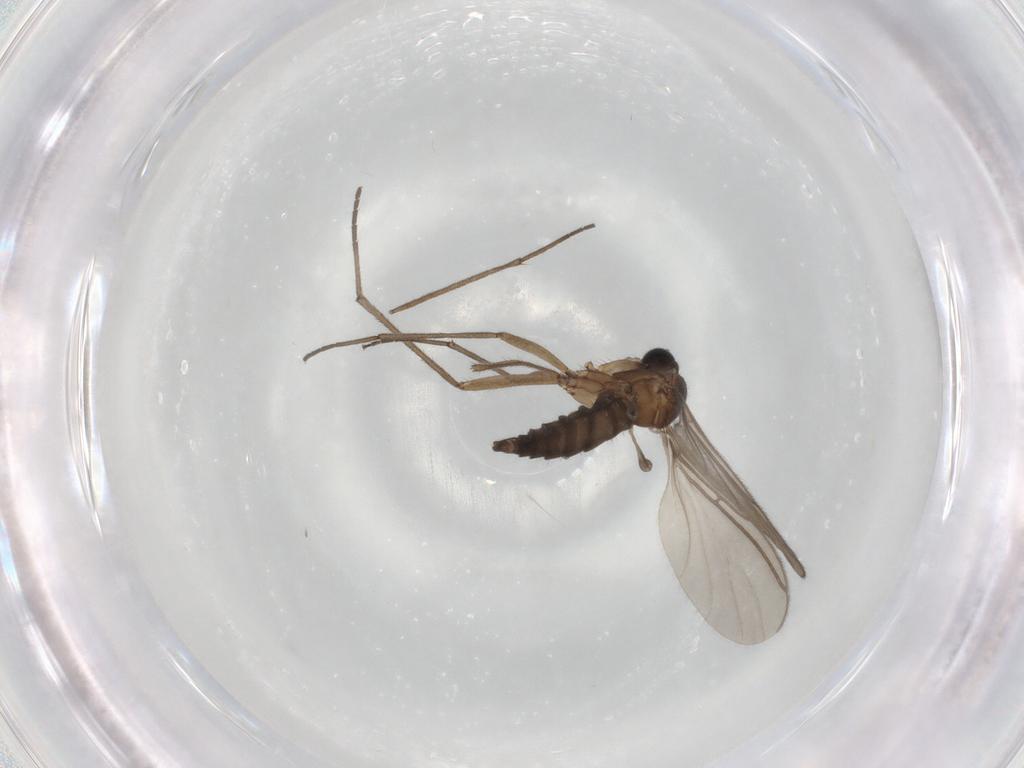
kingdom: Animalia
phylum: Arthropoda
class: Insecta
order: Diptera
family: Sciaridae
